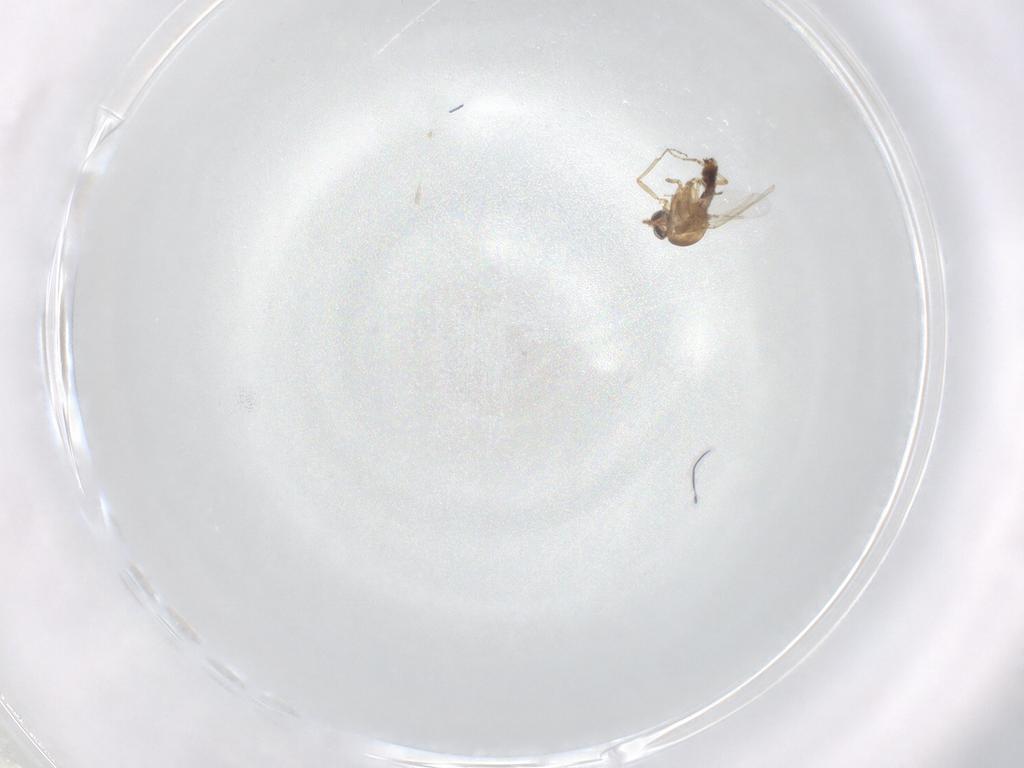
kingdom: Animalia
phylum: Arthropoda
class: Insecta
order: Diptera
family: Ceratopogonidae
